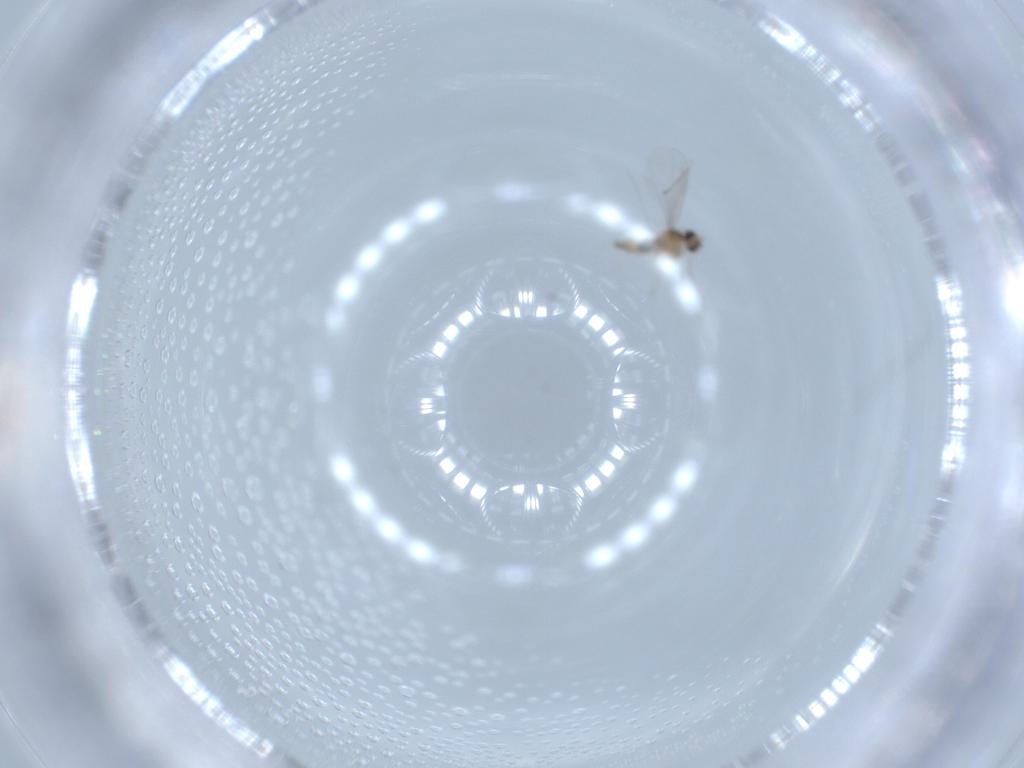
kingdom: Animalia
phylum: Arthropoda
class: Insecta
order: Diptera
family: Cecidomyiidae
